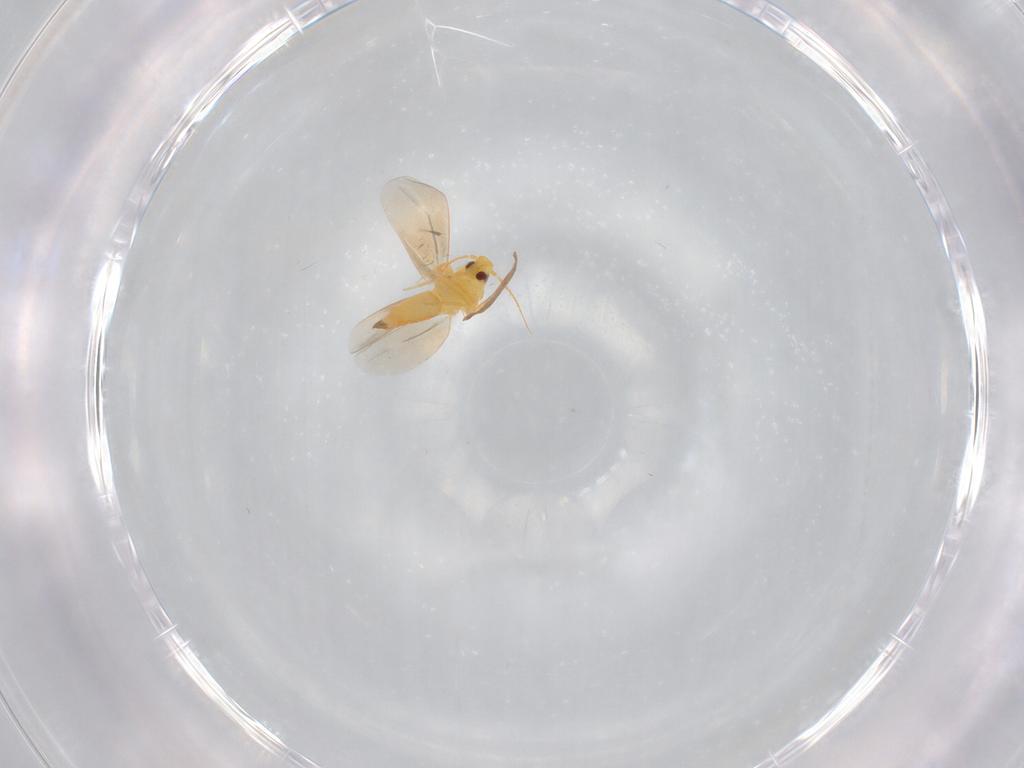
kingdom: Animalia
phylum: Arthropoda
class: Insecta
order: Hemiptera
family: Aleyrodidae
